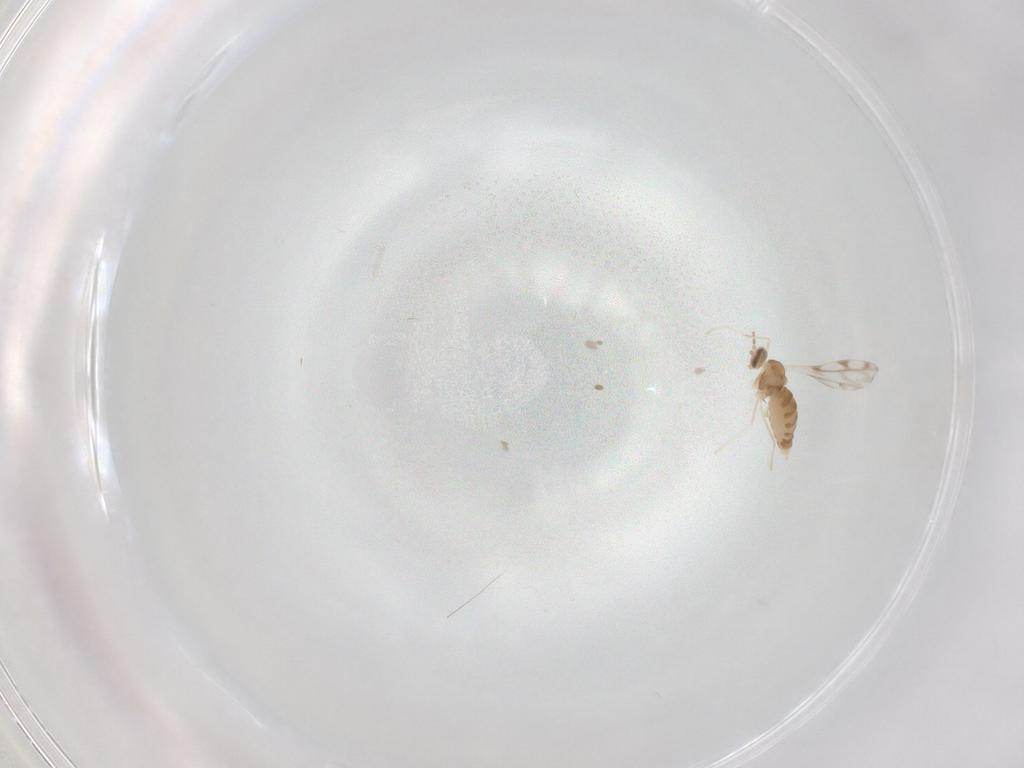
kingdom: Animalia
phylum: Arthropoda
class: Insecta
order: Diptera
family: Cecidomyiidae
